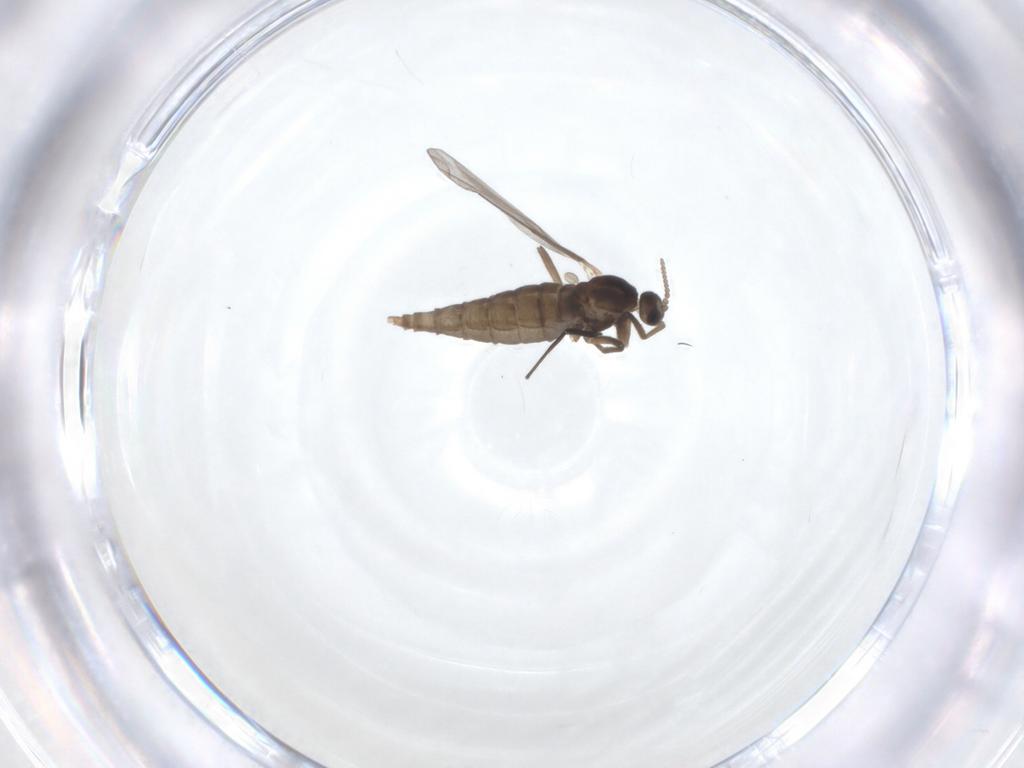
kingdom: Animalia
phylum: Arthropoda
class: Insecta
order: Diptera
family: Cecidomyiidae
